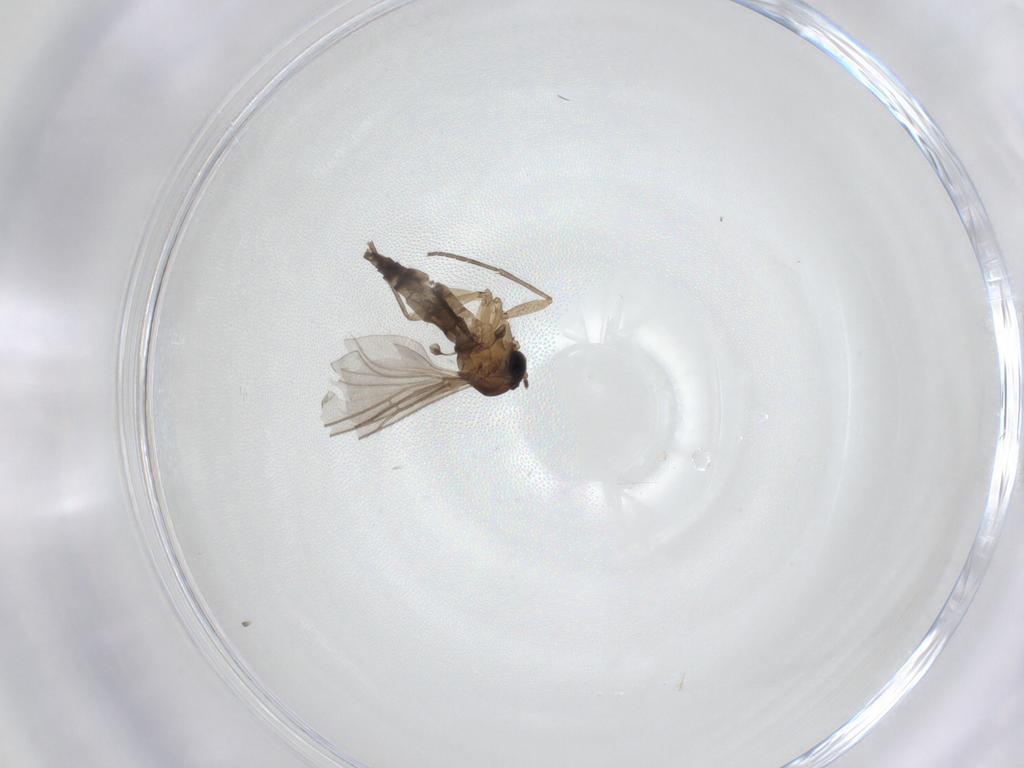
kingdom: Animalia
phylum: Arthropoda
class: Insecta
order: Diptera
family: Sciaridae
